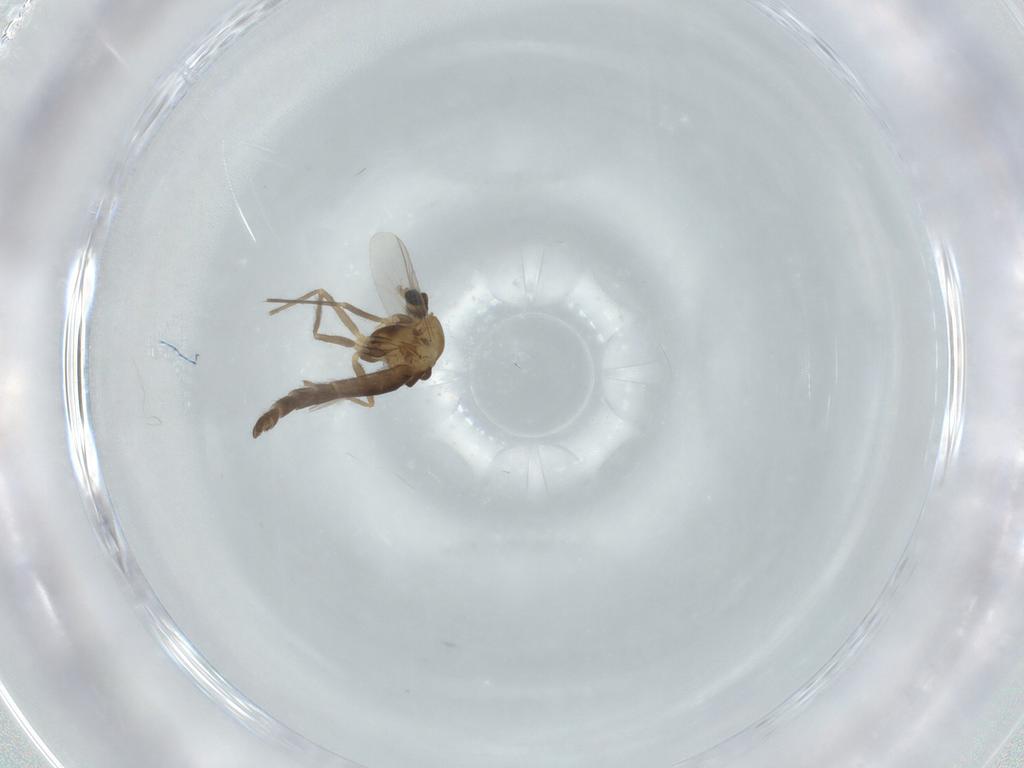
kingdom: Animalia
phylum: Arthropoda
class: Insecta
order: Diptera
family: Chironomidae
